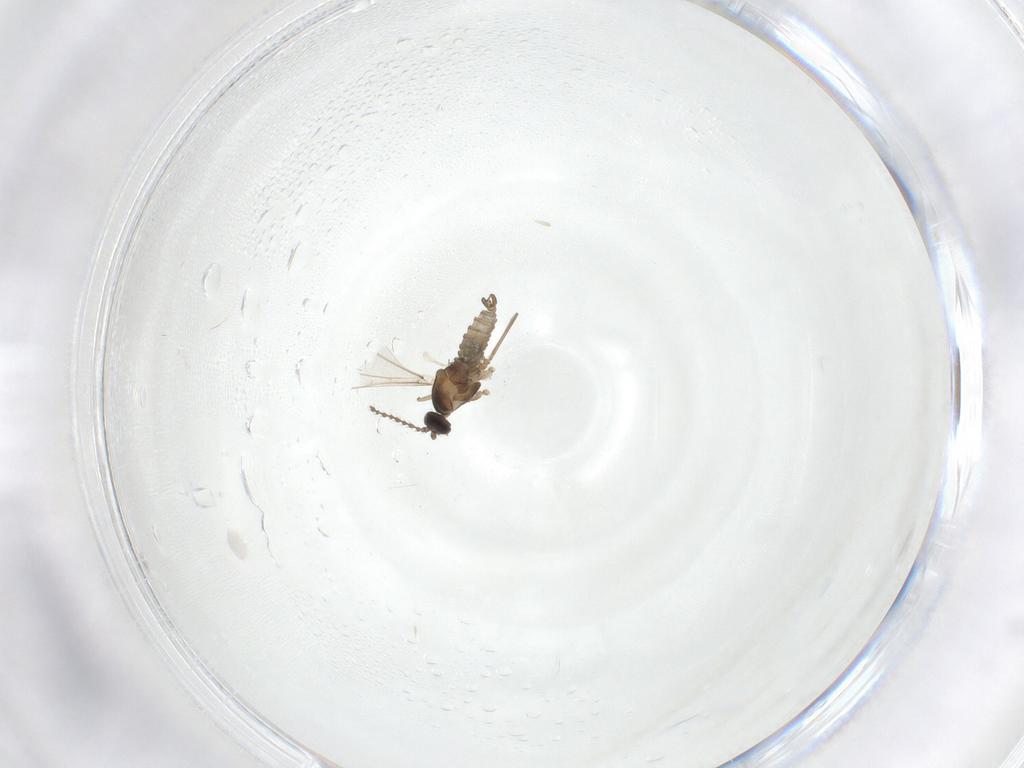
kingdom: Animalia
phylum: Arthropoda
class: Insecta
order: Diptera
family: Cecidomyiidae
